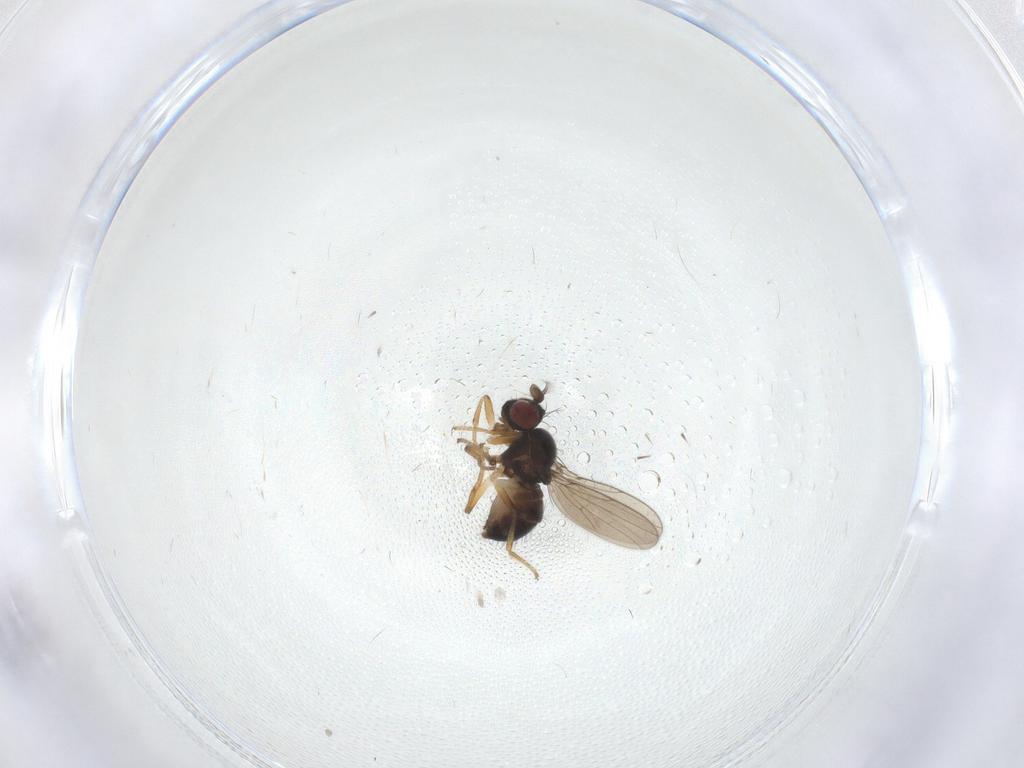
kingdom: Animalia
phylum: Arthropoda
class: Insecta
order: Diptera
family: Ephydridae
